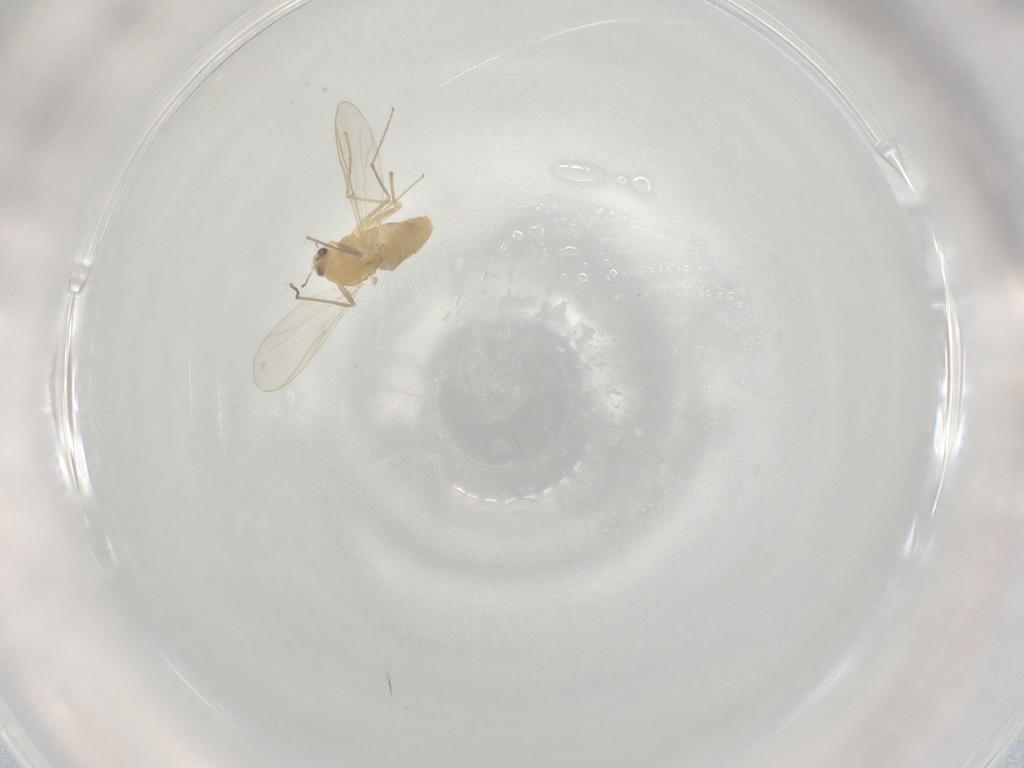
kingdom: Animalia
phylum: Arthropoda
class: Insecta
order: Diptera
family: Chironomidae
